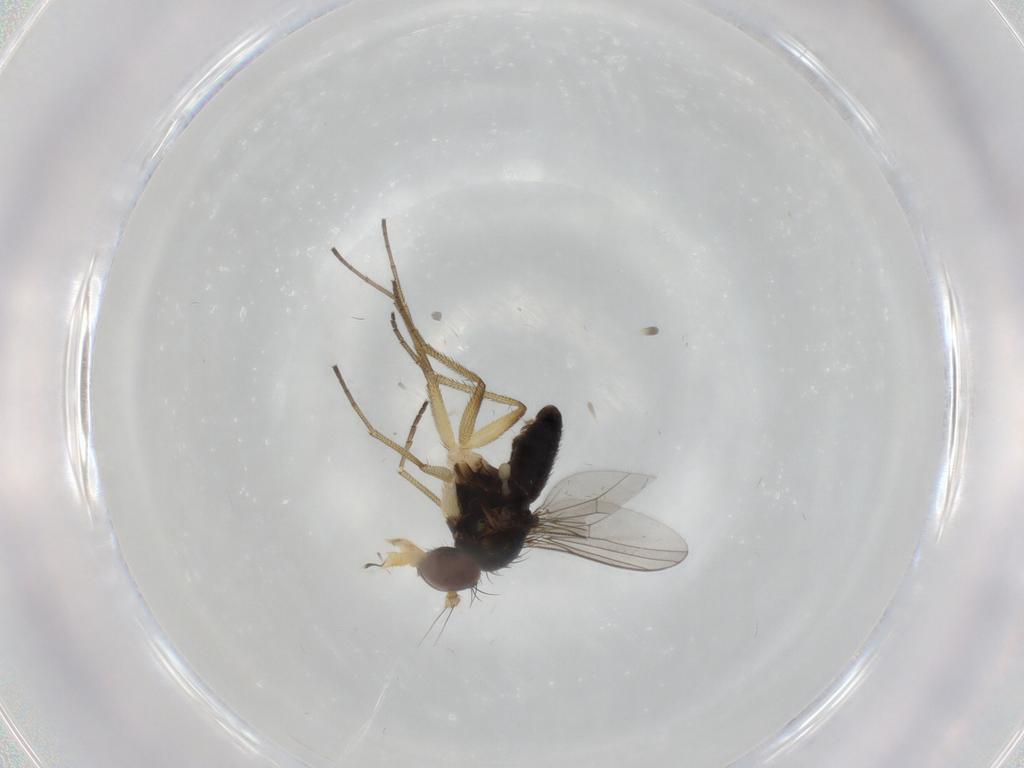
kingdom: Animalia
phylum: Arthropoda
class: Insecta
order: Diptera
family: Dolichopodidae
